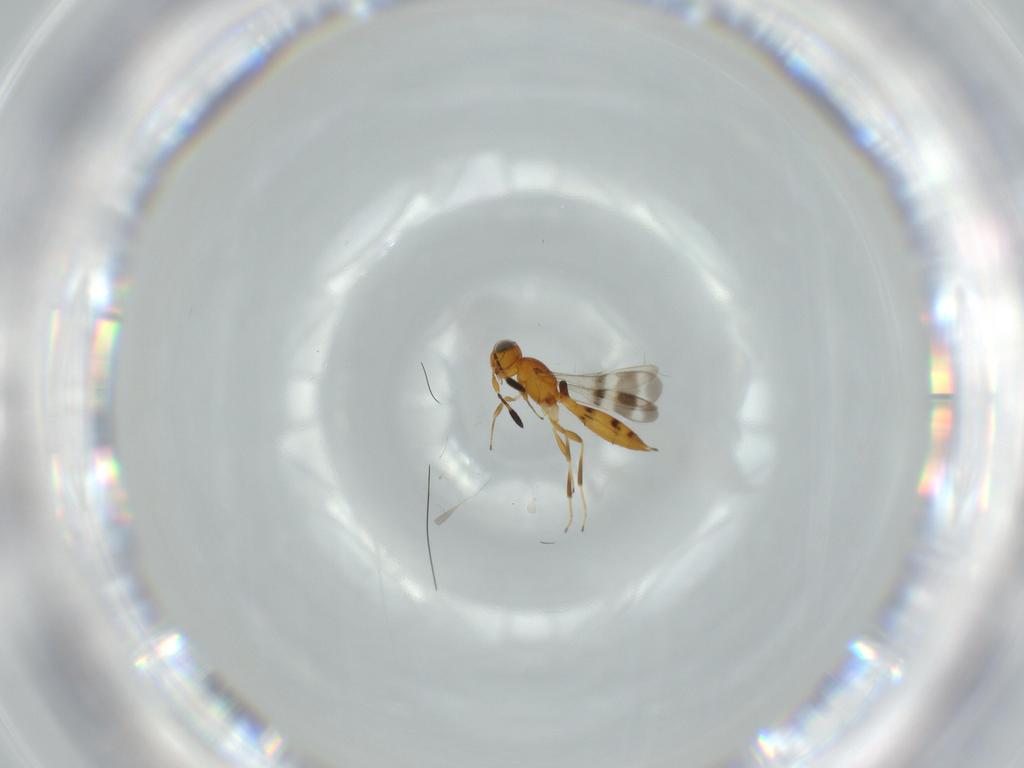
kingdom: Animalia
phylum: Arthropoda
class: Insecta
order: Hymenoptera
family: Scelionidae
